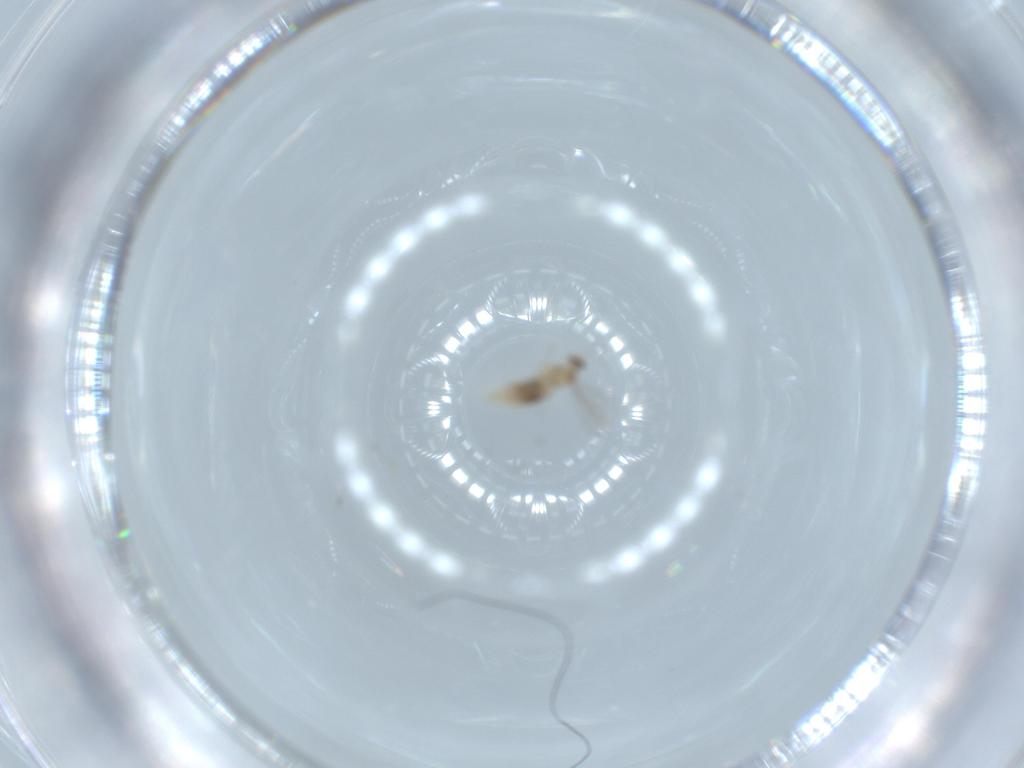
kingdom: Animalia
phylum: Arthropoda
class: Insecta
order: Diptera
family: Cecidomyiidae
